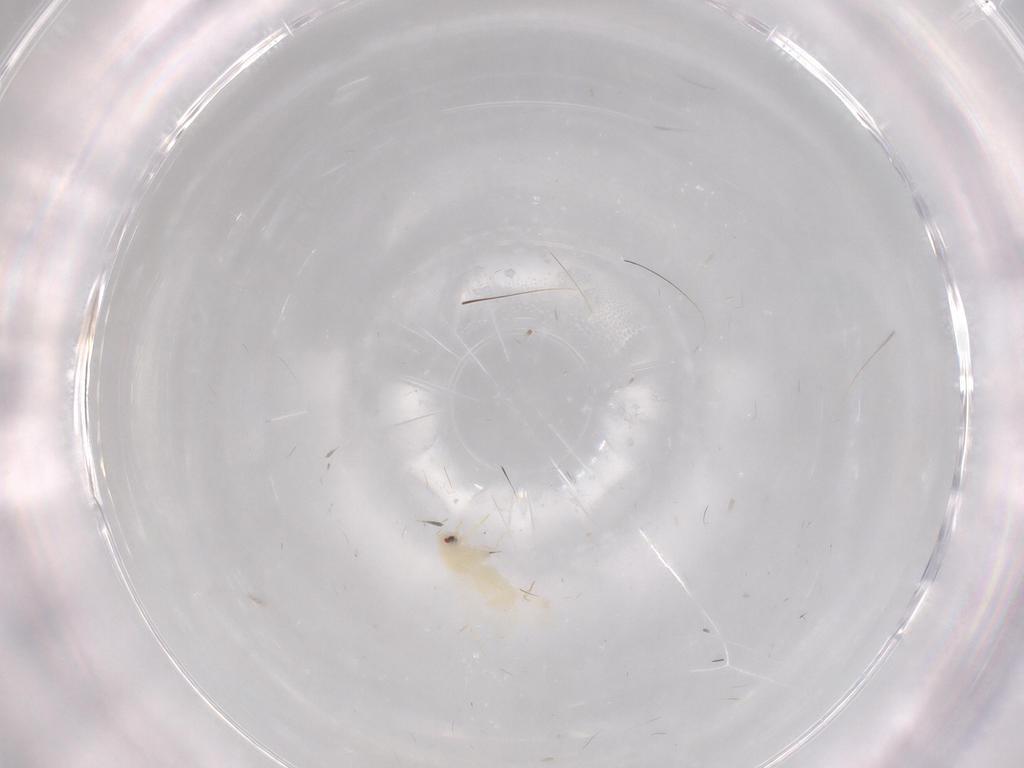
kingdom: Animalia
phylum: Arthropoda
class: Insecta
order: Hemiptera
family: Aleyrodidae
